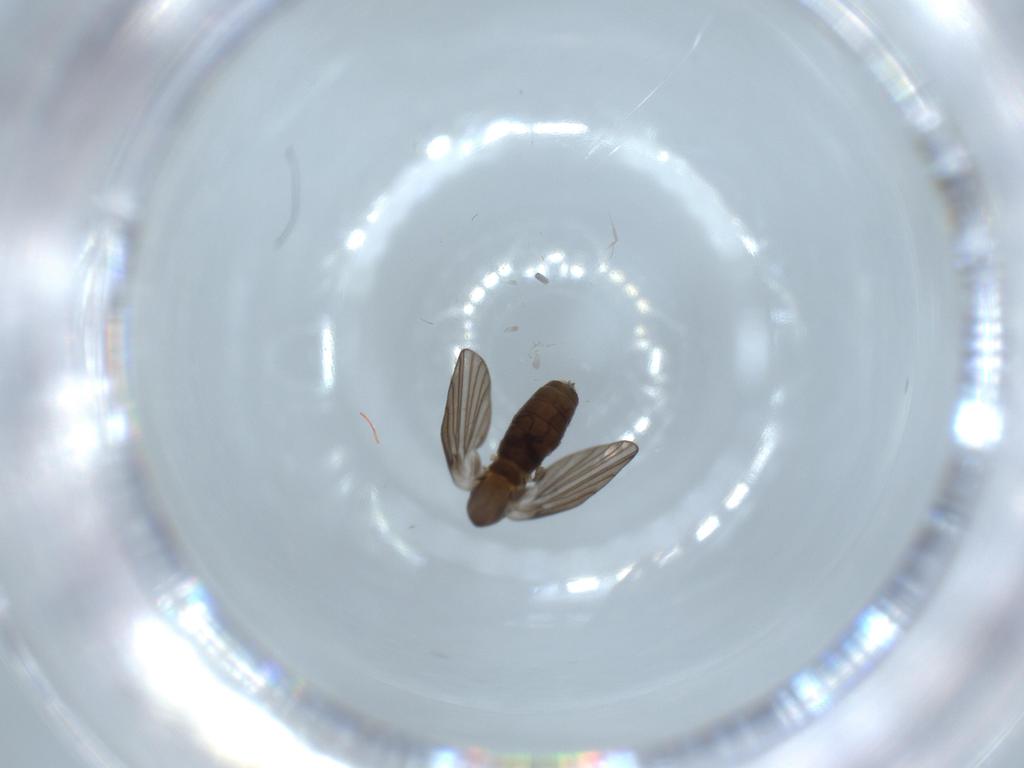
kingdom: Animalia
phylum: Arthropoda
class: Insecta
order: Diptera
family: Psychodidae
